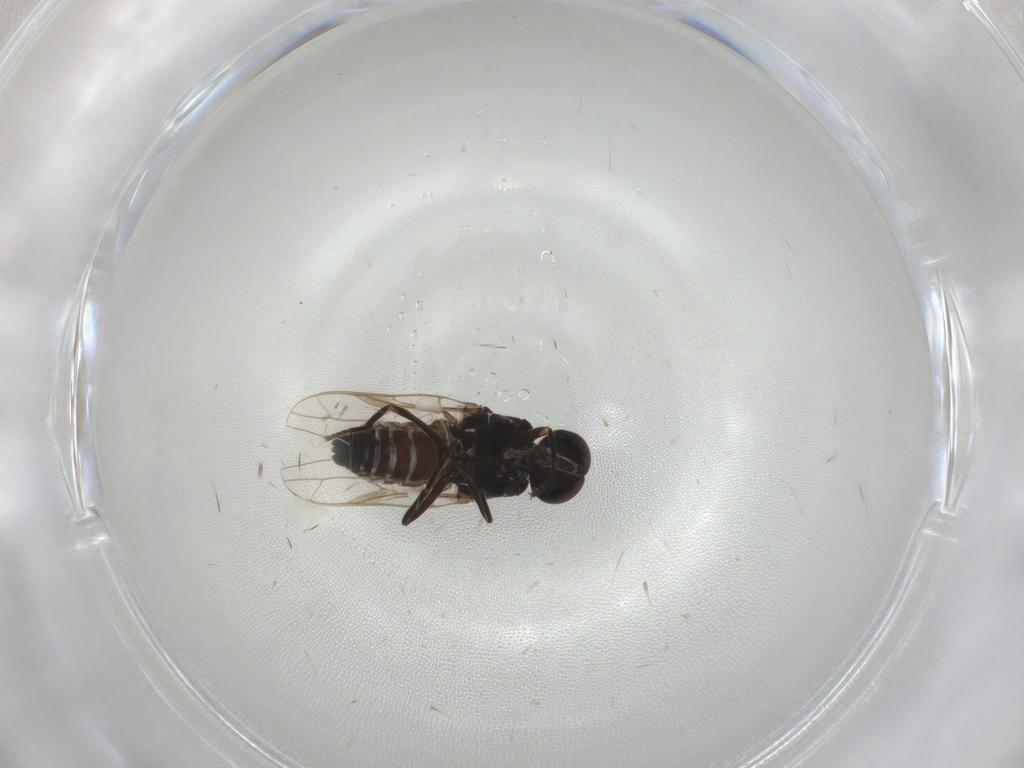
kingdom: Animalia
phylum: Arthropoda
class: Insecta
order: Diptera
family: Scenopinidae
